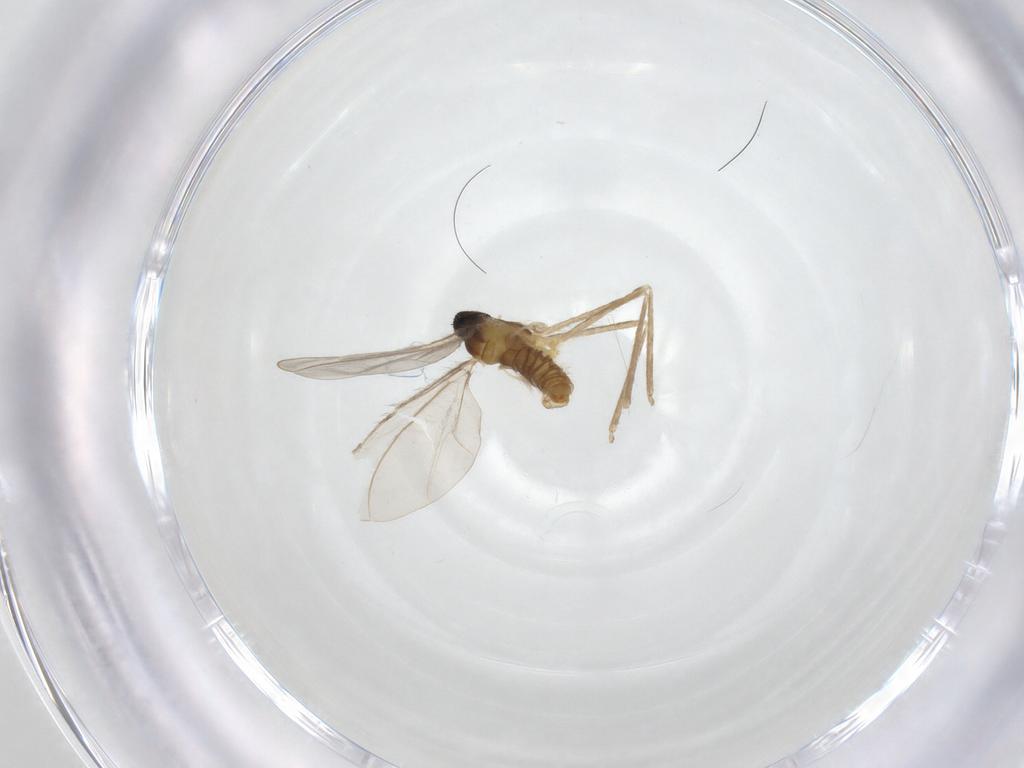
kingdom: Animalia
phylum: Arthropoda
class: Insecta
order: Diptera
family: Cecidomyiidae
